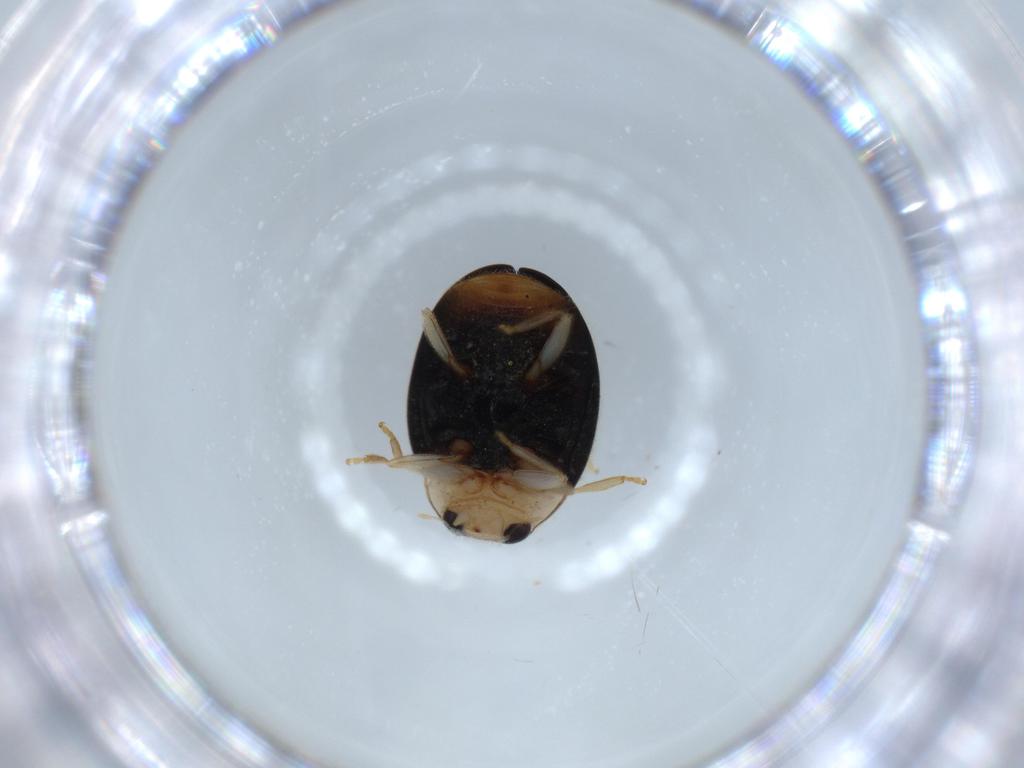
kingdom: Animalia
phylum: Arthropoda
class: Insecta
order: Coleoptera
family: Coccinellidae
